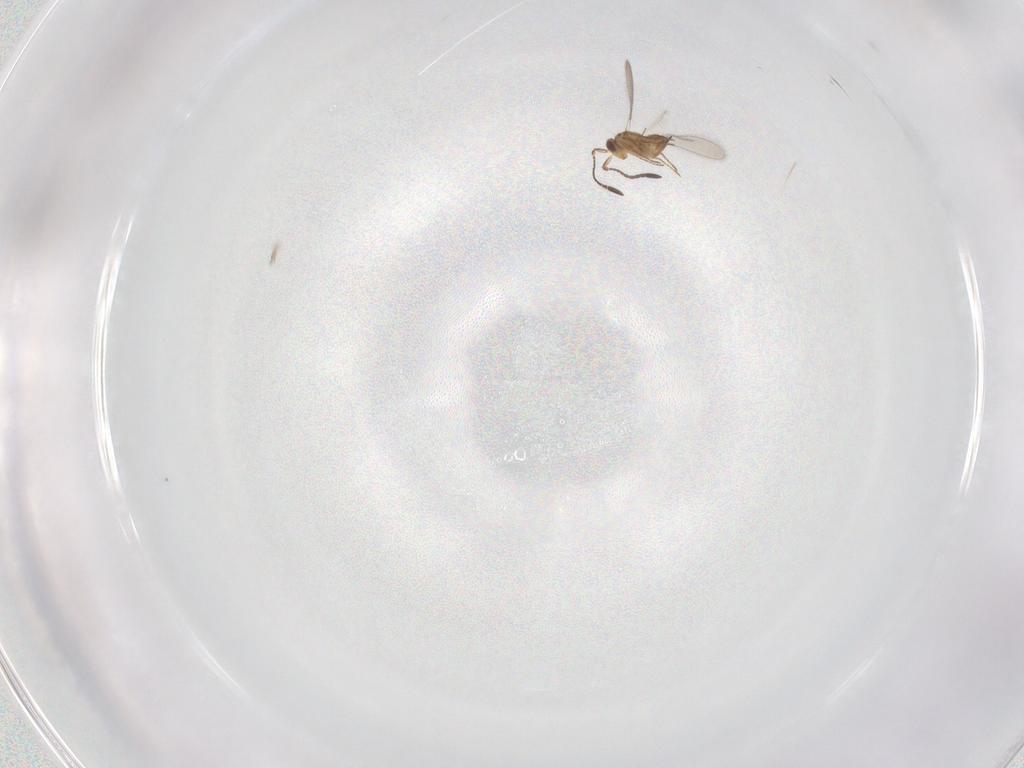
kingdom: Animalia
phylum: Arthropoda
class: Insecta
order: Hymenoptera
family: Mymaridae
